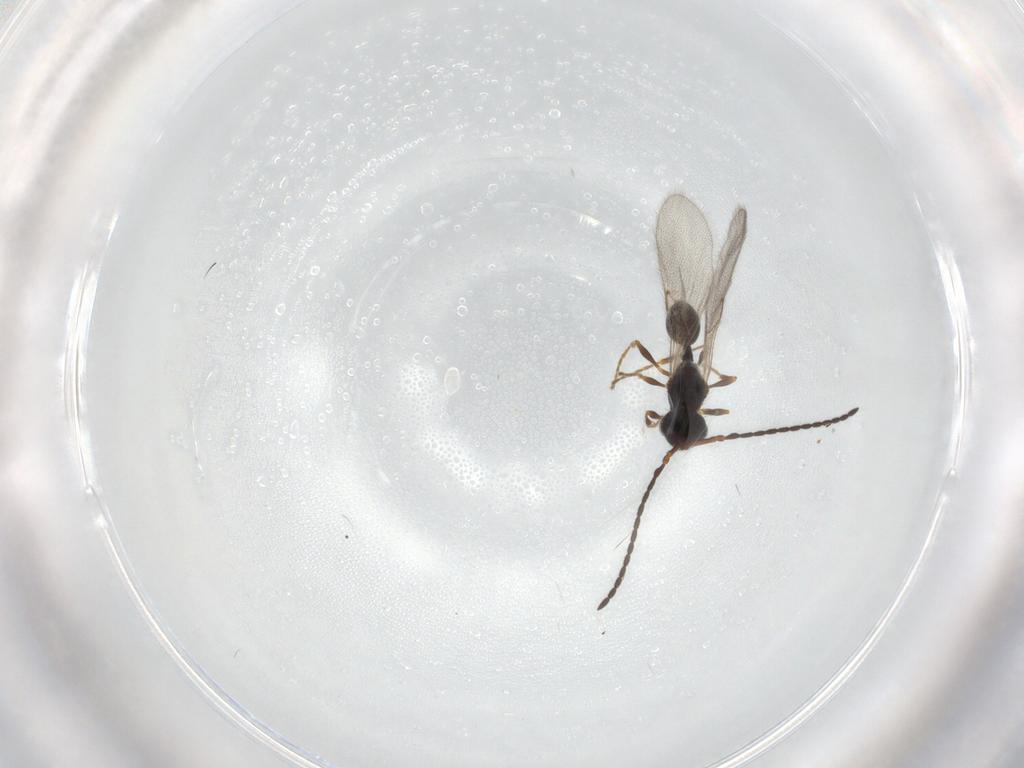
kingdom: Animalia
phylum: Arthropoda
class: Insecta
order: Hymenoptera
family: Diapriidae
